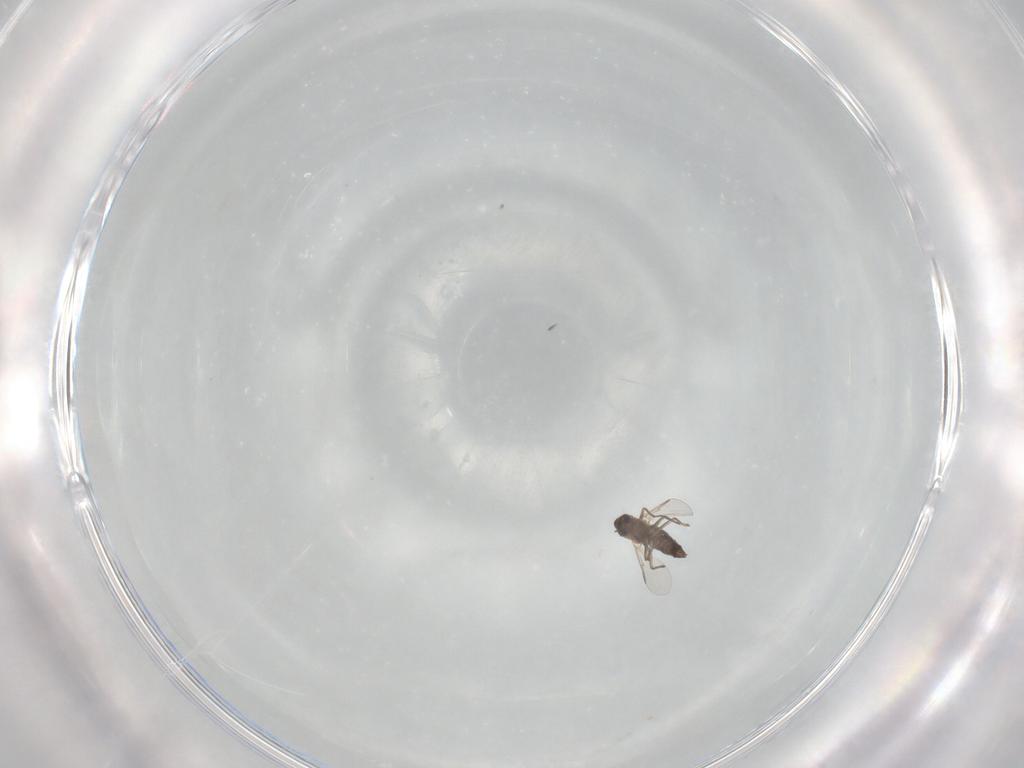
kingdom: Animalia
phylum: Arthropoda
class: Insecta
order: Diptera
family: Chironomidae
